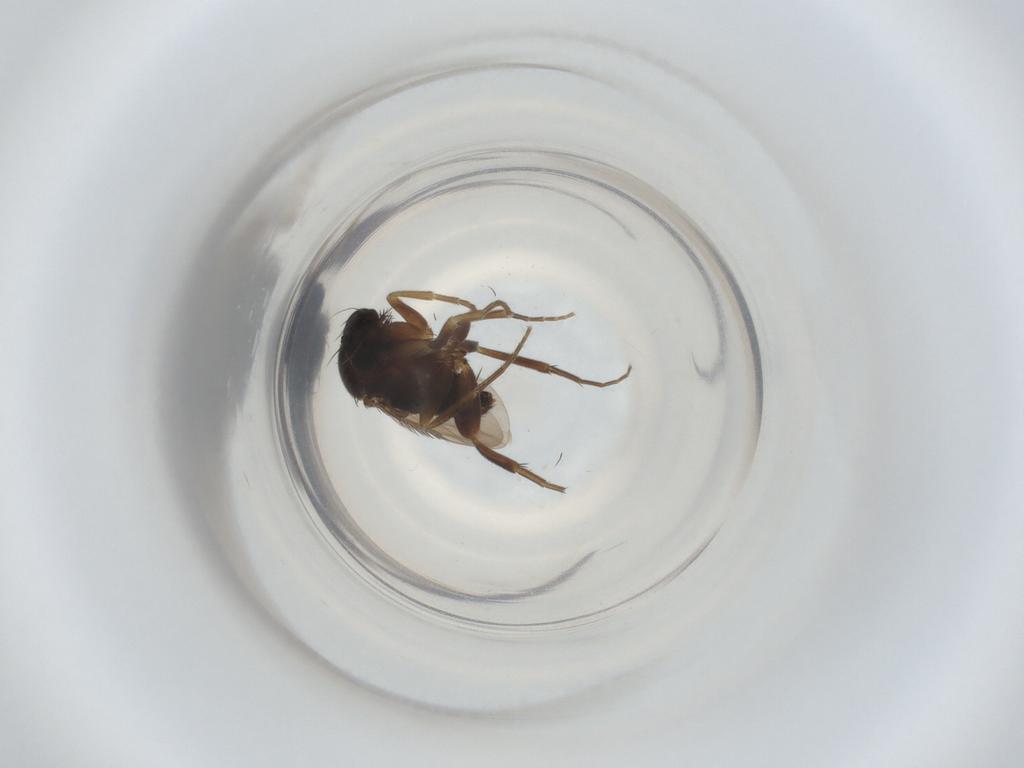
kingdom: Animalia
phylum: Arthropoda
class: Insecta
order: Diptera
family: Phoridae
